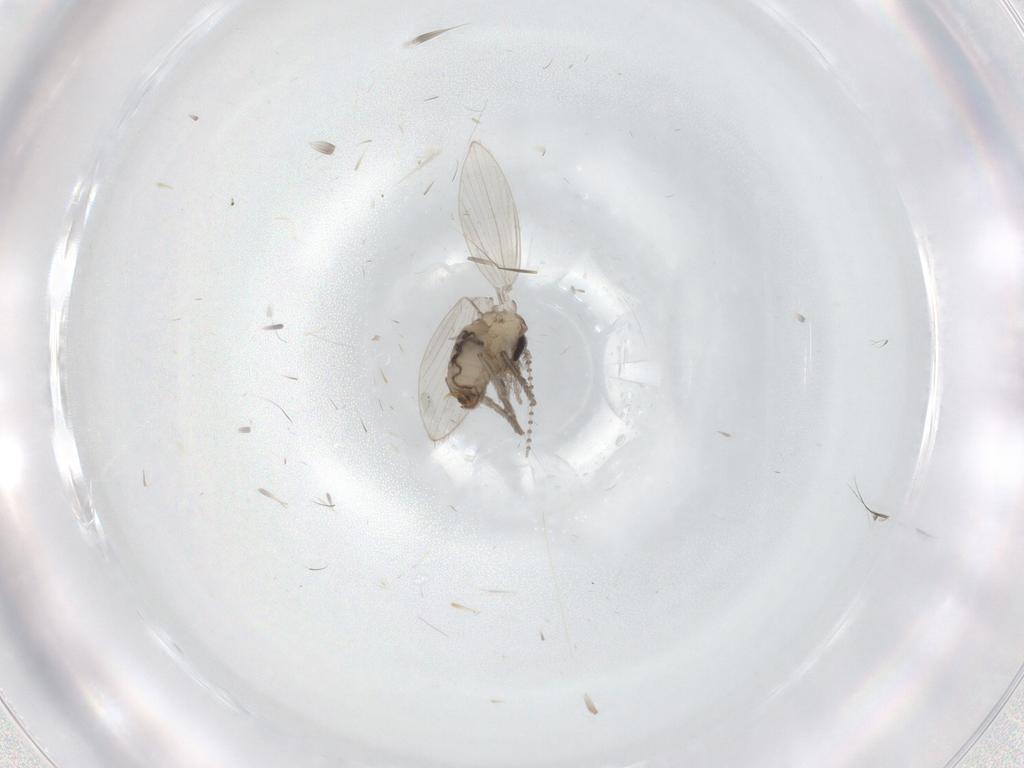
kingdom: Animalia
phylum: Arthropoda
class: Insecta
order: Diptera
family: Psychodidae
